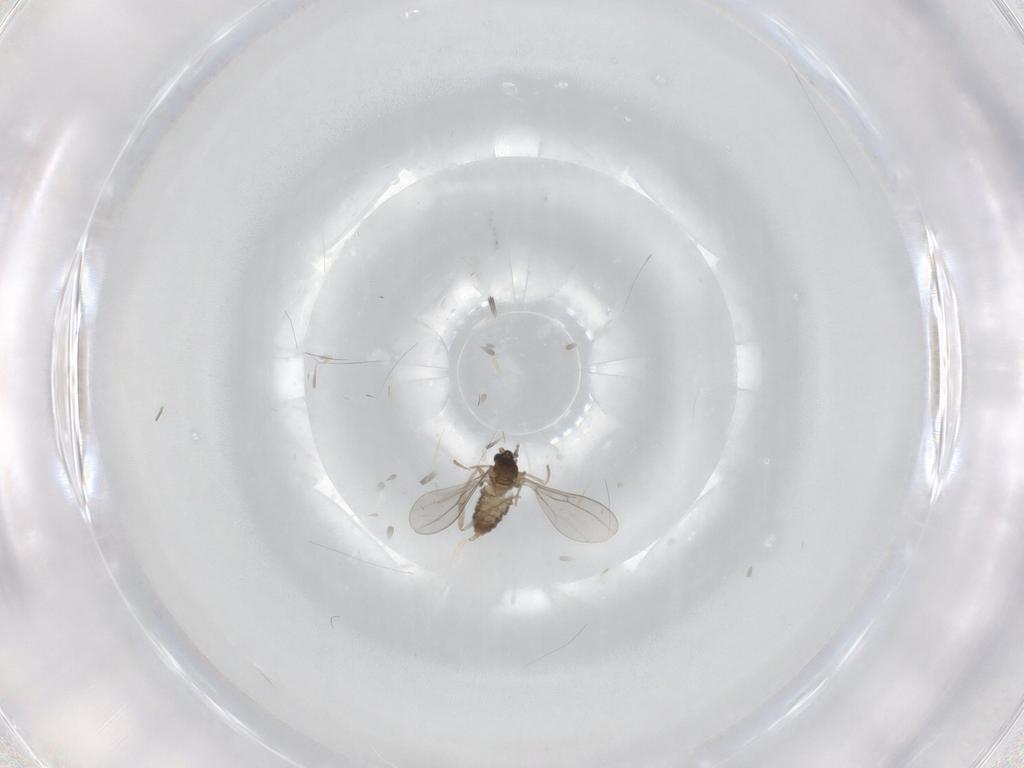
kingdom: Animalia
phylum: Arthropoda
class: Insecta
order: Diptera
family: Cecidomyiidae
